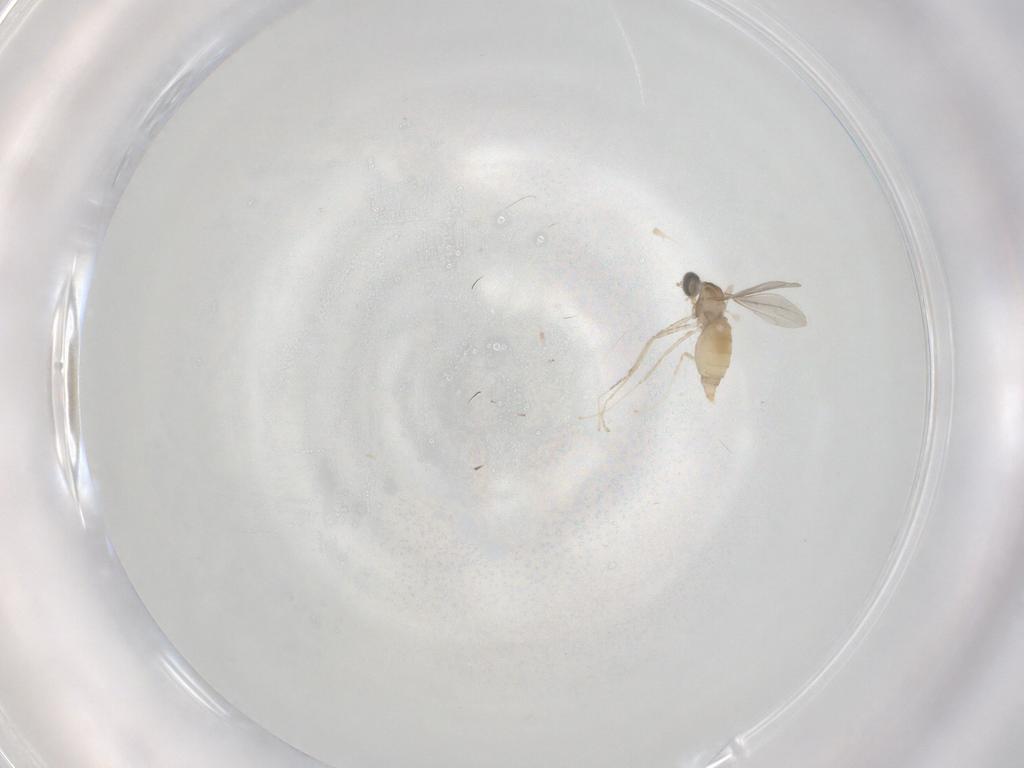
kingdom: Animalia
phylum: Arthropoda
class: Insecta
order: Diptera
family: Cecidomyiidae
